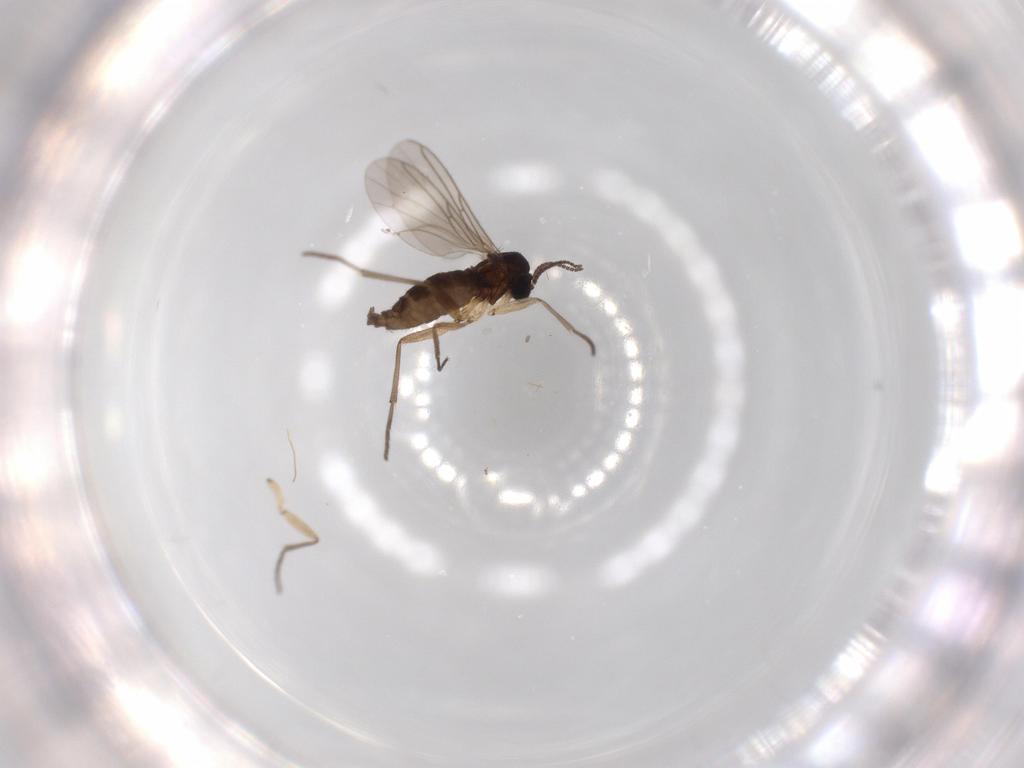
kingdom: Animalia
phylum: Arthropoda
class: Insecta
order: Diptera
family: Sciaridae
